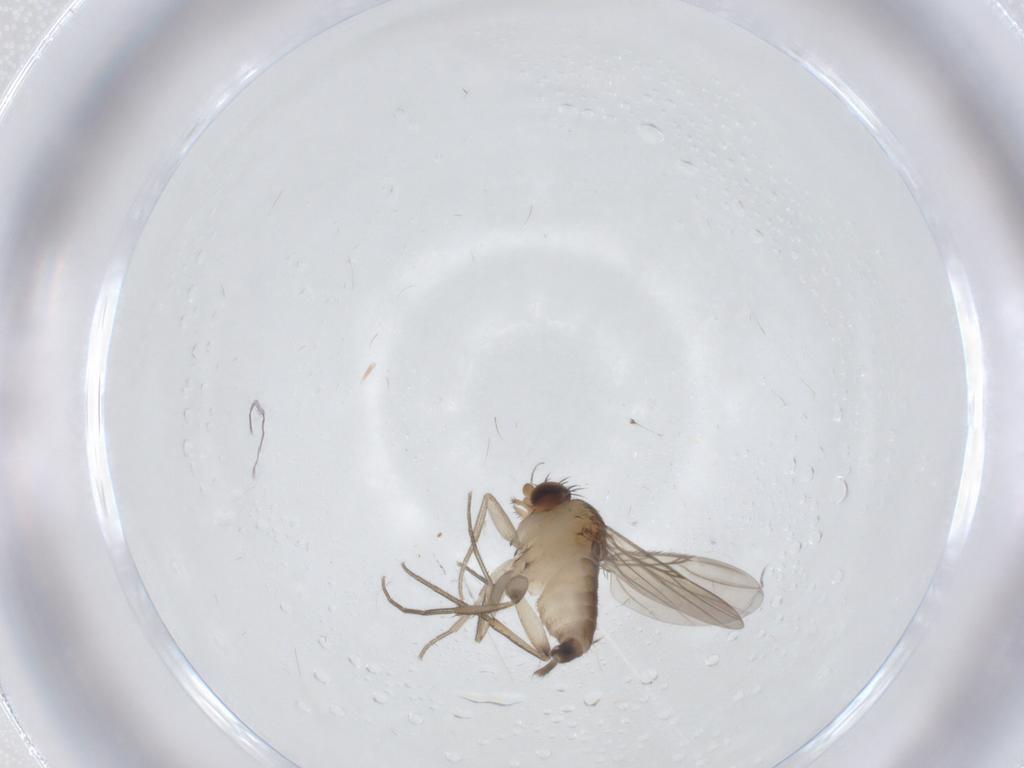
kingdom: Animalia
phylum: Arthropoda
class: Insecta
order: Diptera
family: Phoridae
